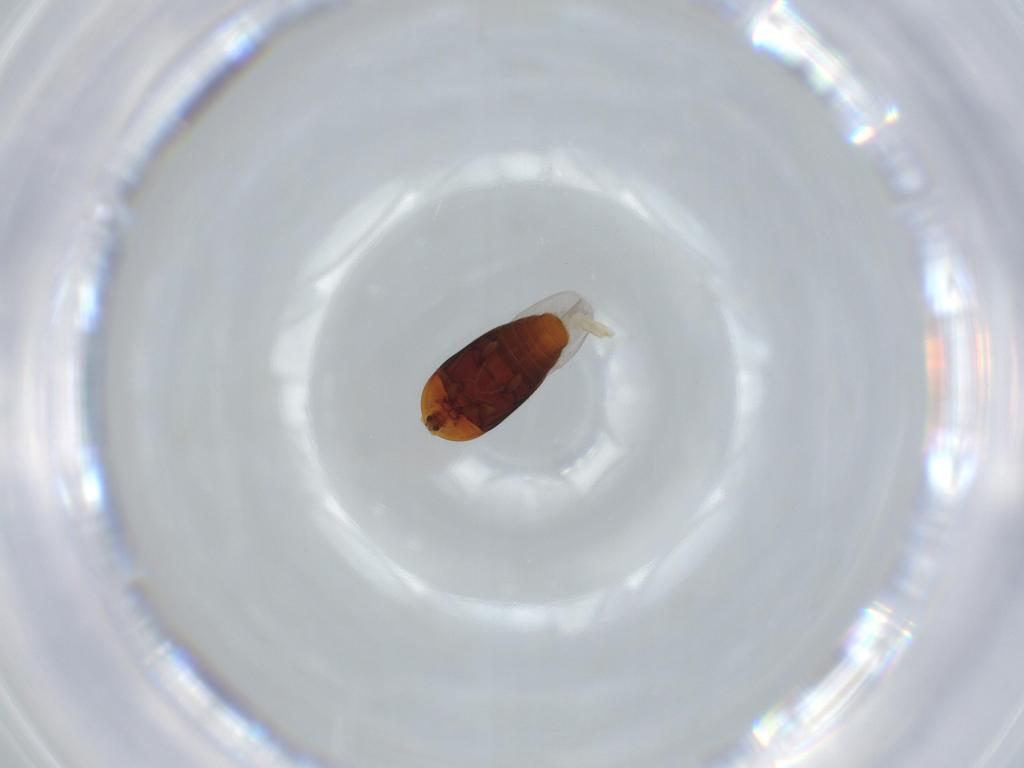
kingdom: Animalia
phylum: Arthropoda
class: Insecta
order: Coleoptera
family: Corylophidae
